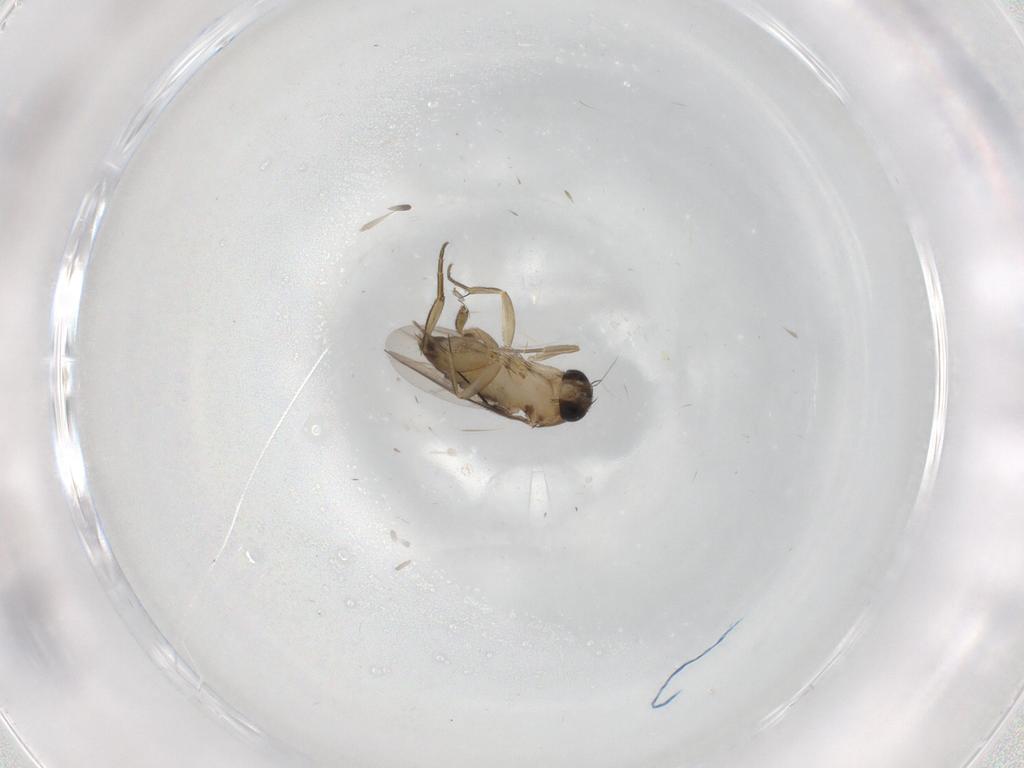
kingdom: Animalia
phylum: Arthropoda
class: Insecta
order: Diptera
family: Phoridae
